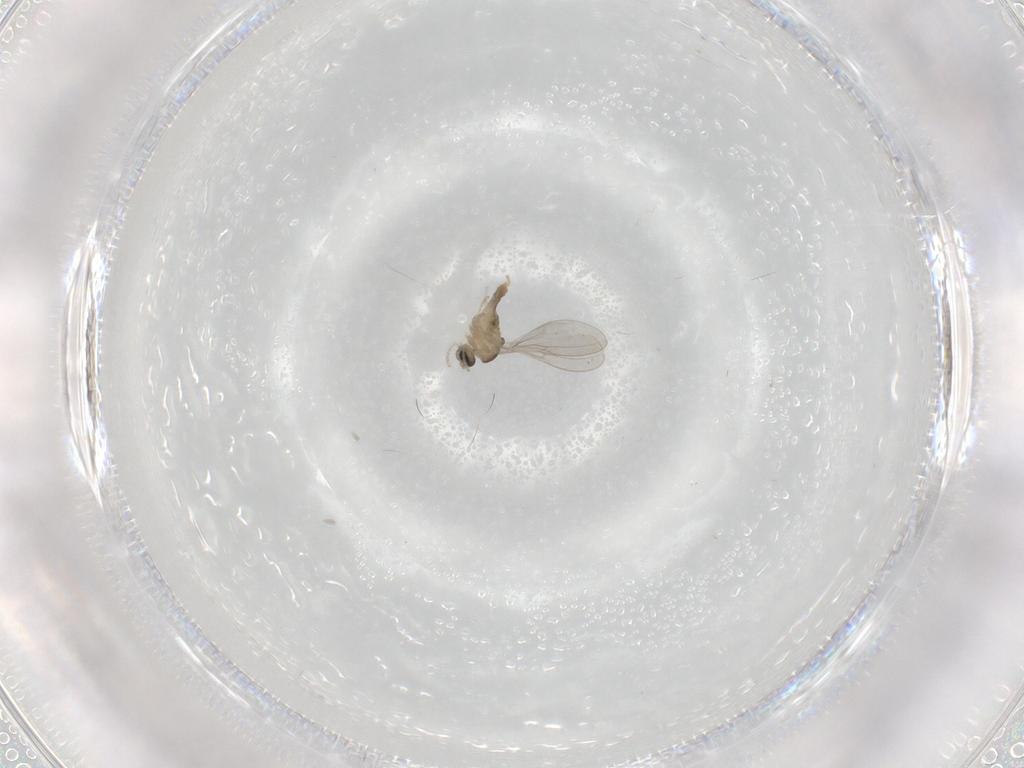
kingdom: Animalia
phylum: Arthropoda
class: Insecta
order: Diptera
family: Cecidomyiidae
